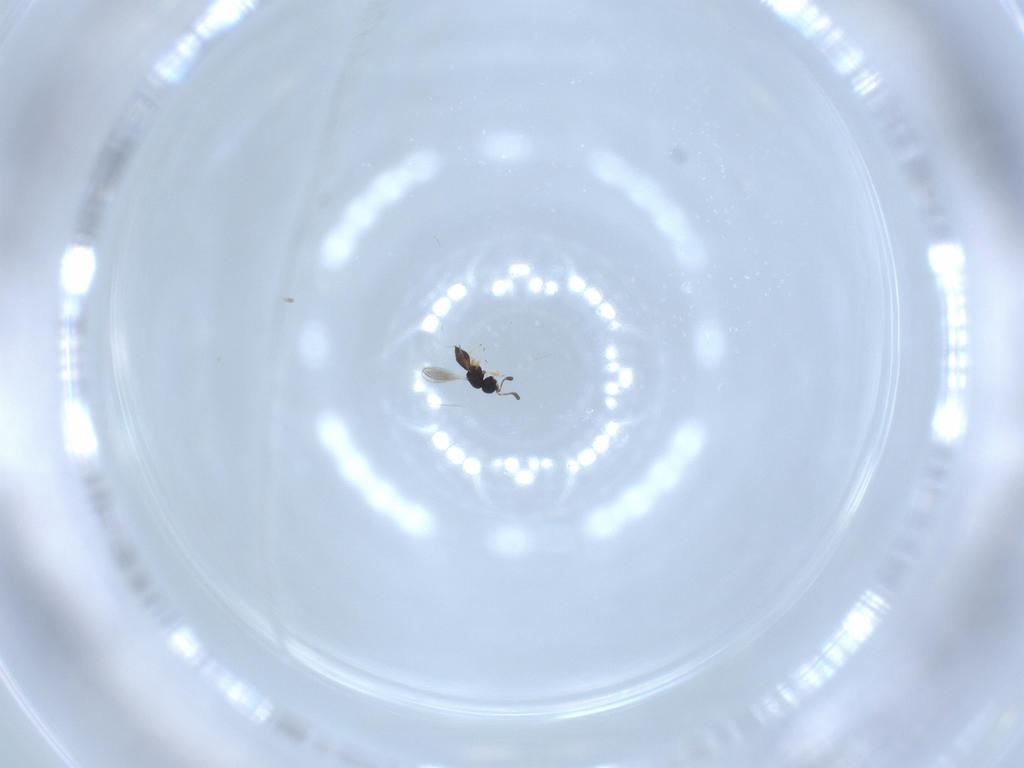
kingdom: Animalia
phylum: Arthropoda
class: Insecta
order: Hymenoptera
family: Scelionidae
